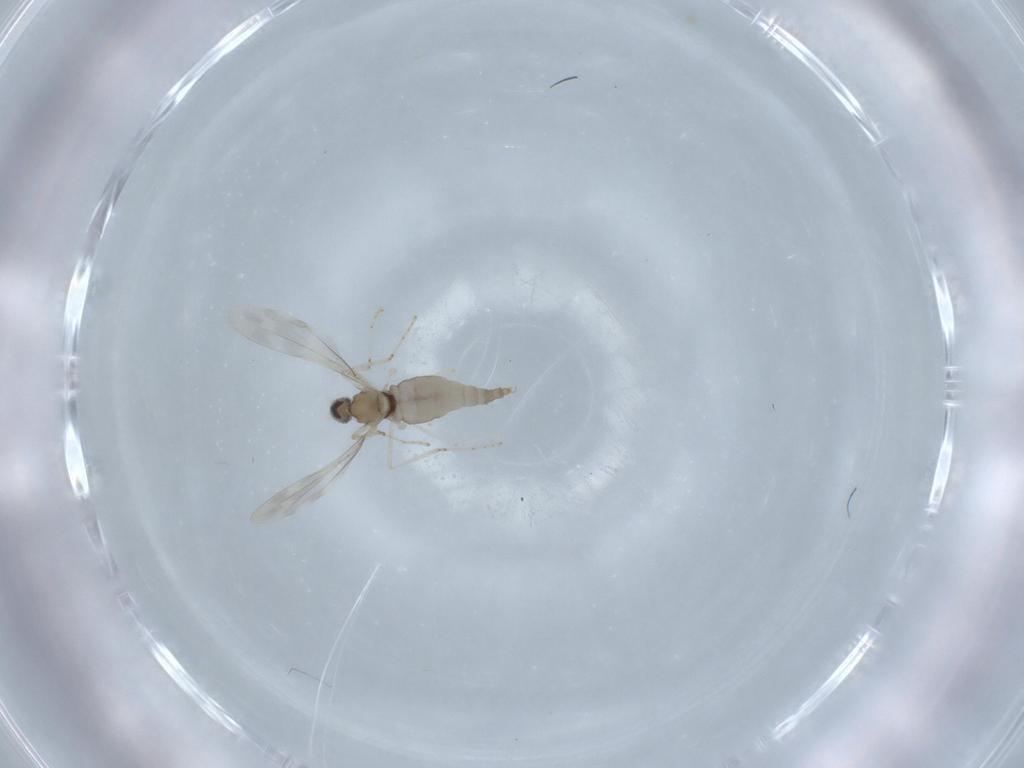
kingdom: Animalia
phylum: Arthropoda
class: Insecta
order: Diptera
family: Cecidomyiidae
